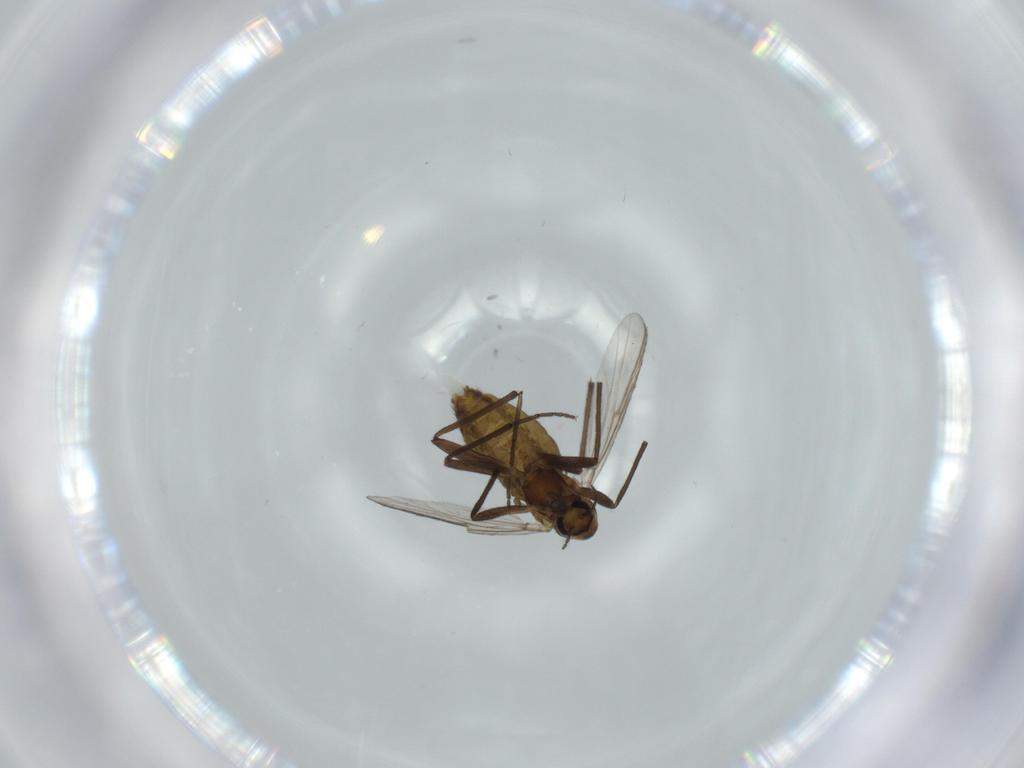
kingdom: Animalia
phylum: Arthropoda
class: Insecta
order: Diptera
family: Chironomidae
